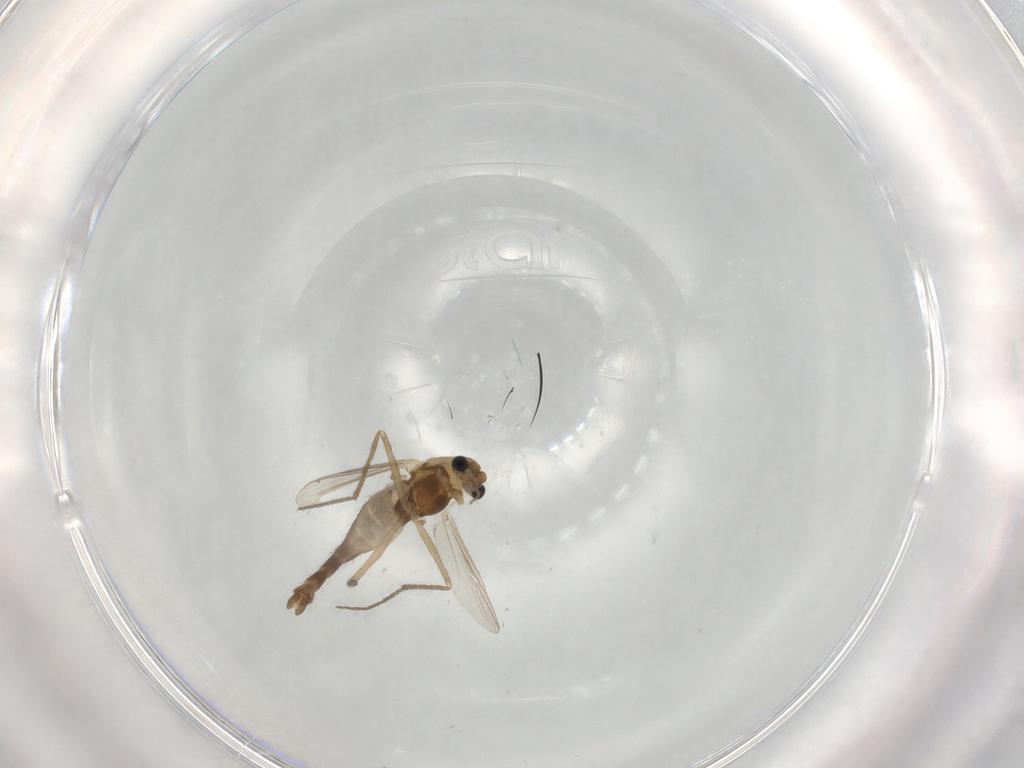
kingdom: Animalia
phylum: Arthropoda
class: Insecta
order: Diptera
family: Chironomidae
